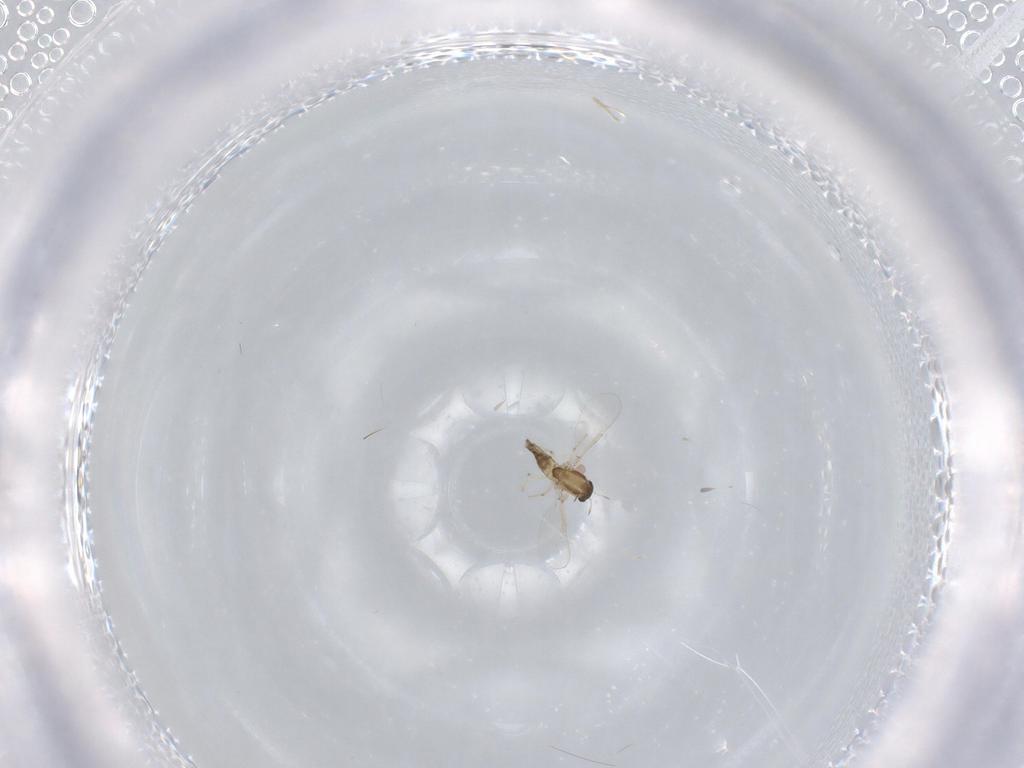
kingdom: Animalia
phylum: Arthropoda
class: Insecta
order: Diptera
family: Chironomidae
